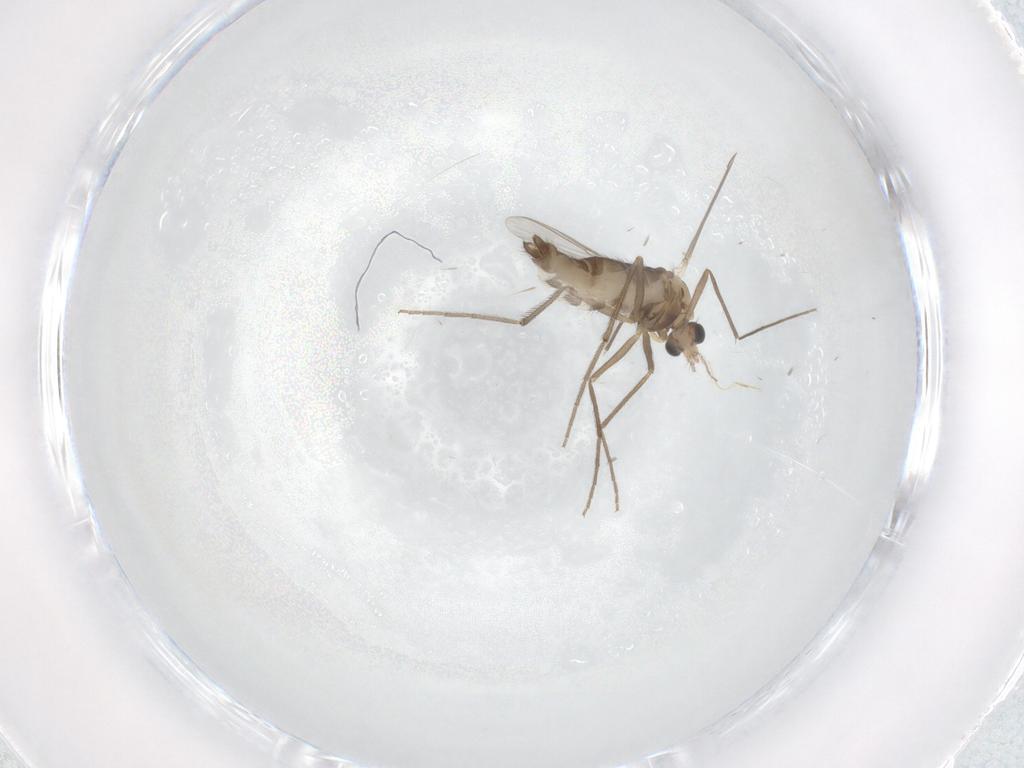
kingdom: Animalia
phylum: Arthropoda
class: Insecta
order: Diptera
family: Chironomidae
